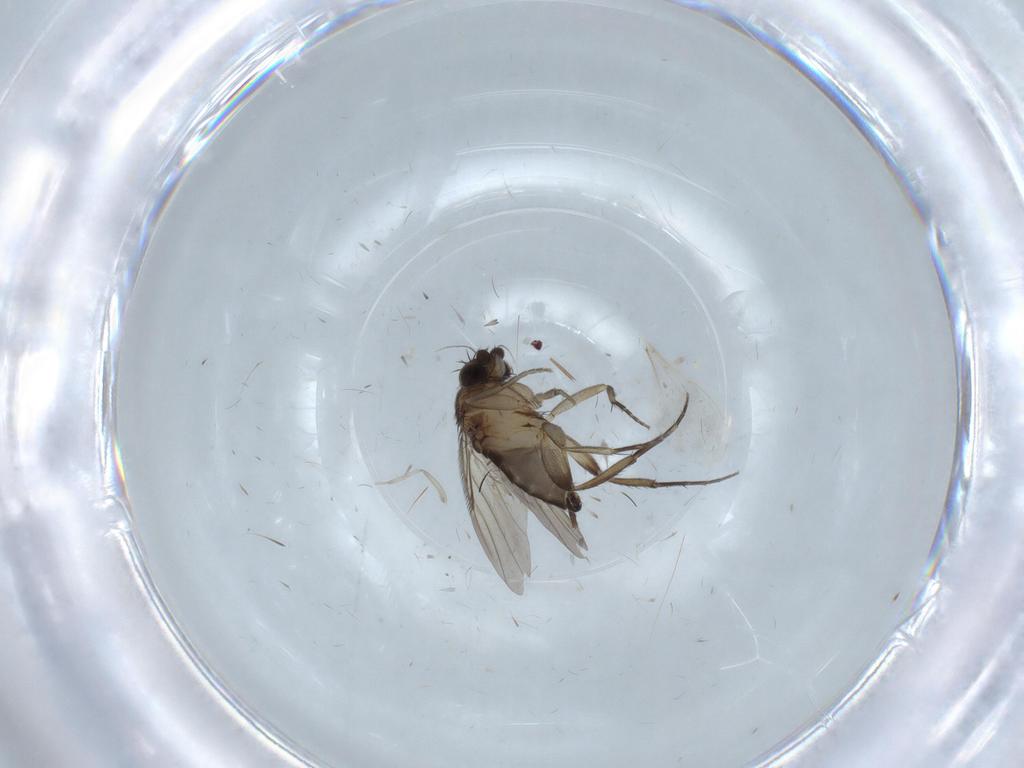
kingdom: Animalia
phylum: Arthropoda
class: Insecta
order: Diptera
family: Phoridae
